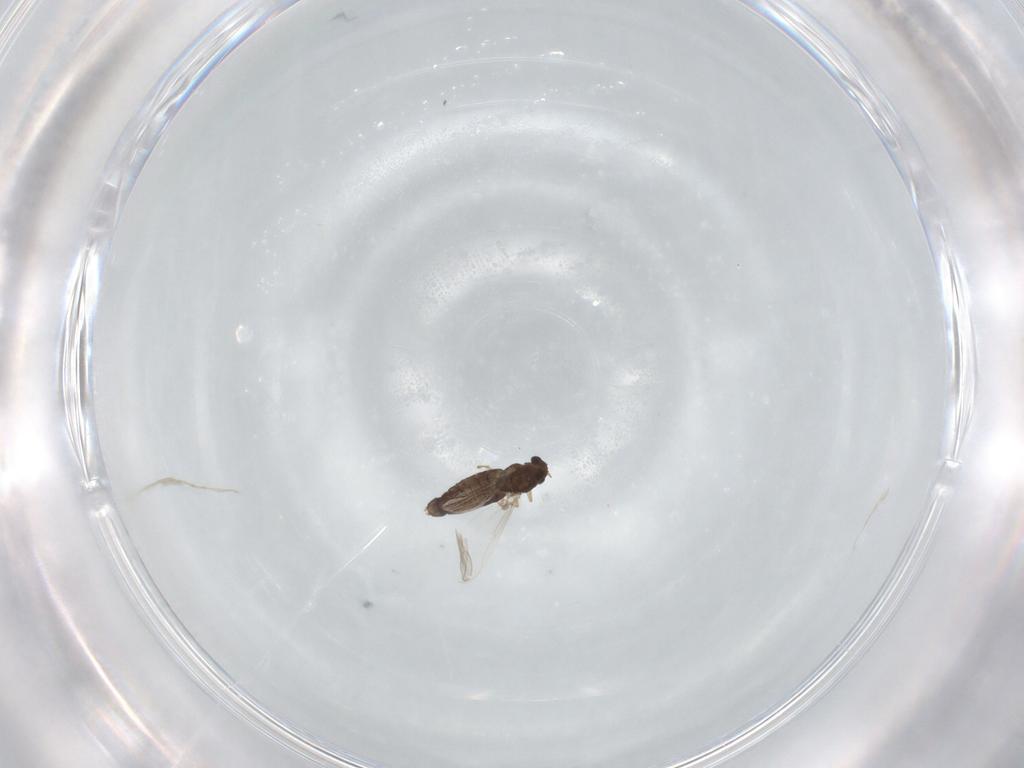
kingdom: Animalia
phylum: Arthropoda
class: Insecta
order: Diptera
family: Chironomidae
